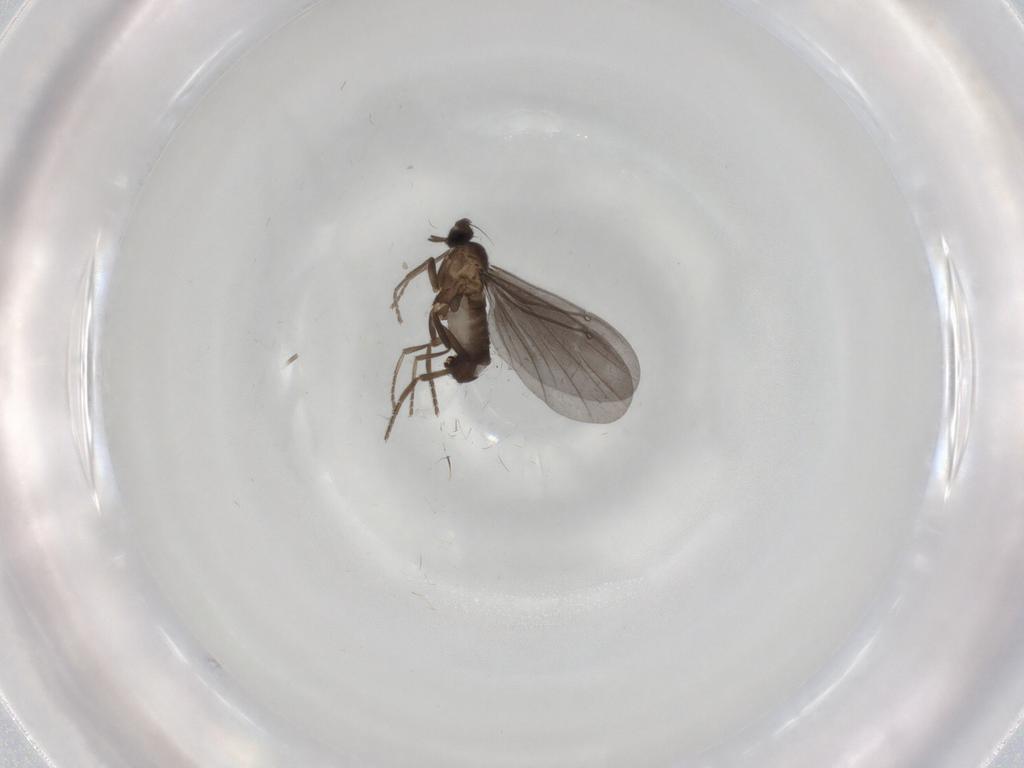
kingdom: Animalia
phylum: Arthropoda
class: Insecta
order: Diptera
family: Phoridae
